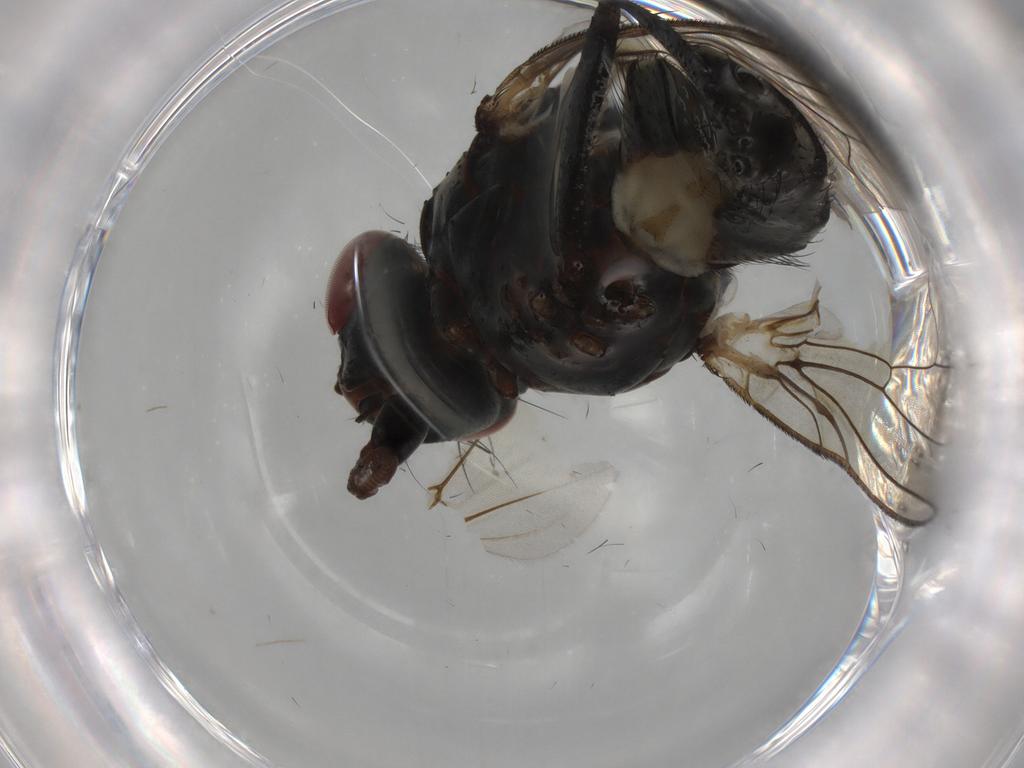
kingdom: Animalia
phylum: Arthropoda
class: Insecta
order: Diptera
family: Anthomyiidae
